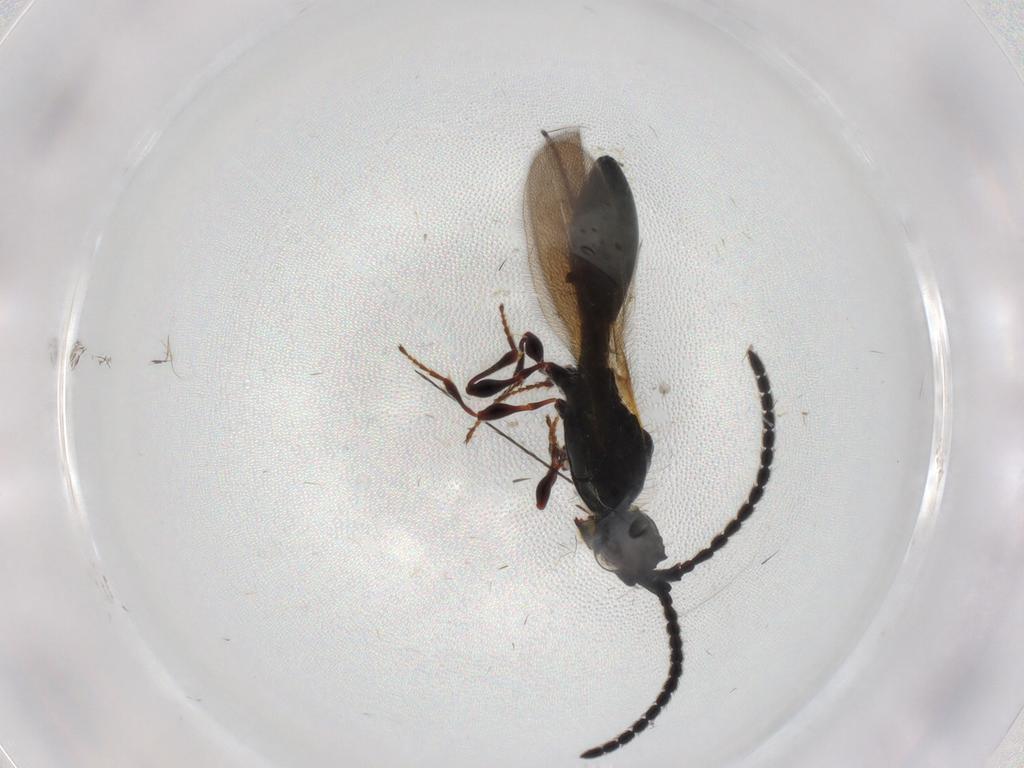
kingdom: Animalia
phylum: Arthropoda
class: Insecta
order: Hymenoptera
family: Diapriidae
